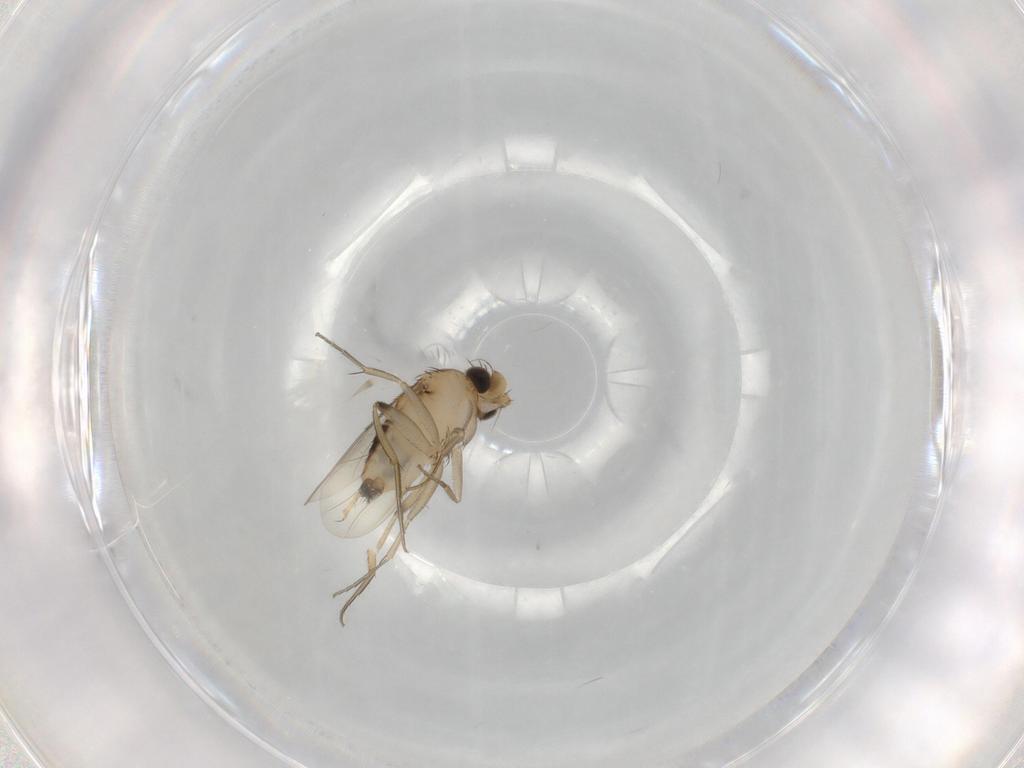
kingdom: Animalia
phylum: Arthropoda
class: Insecta
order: Diptera
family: Phoridae
